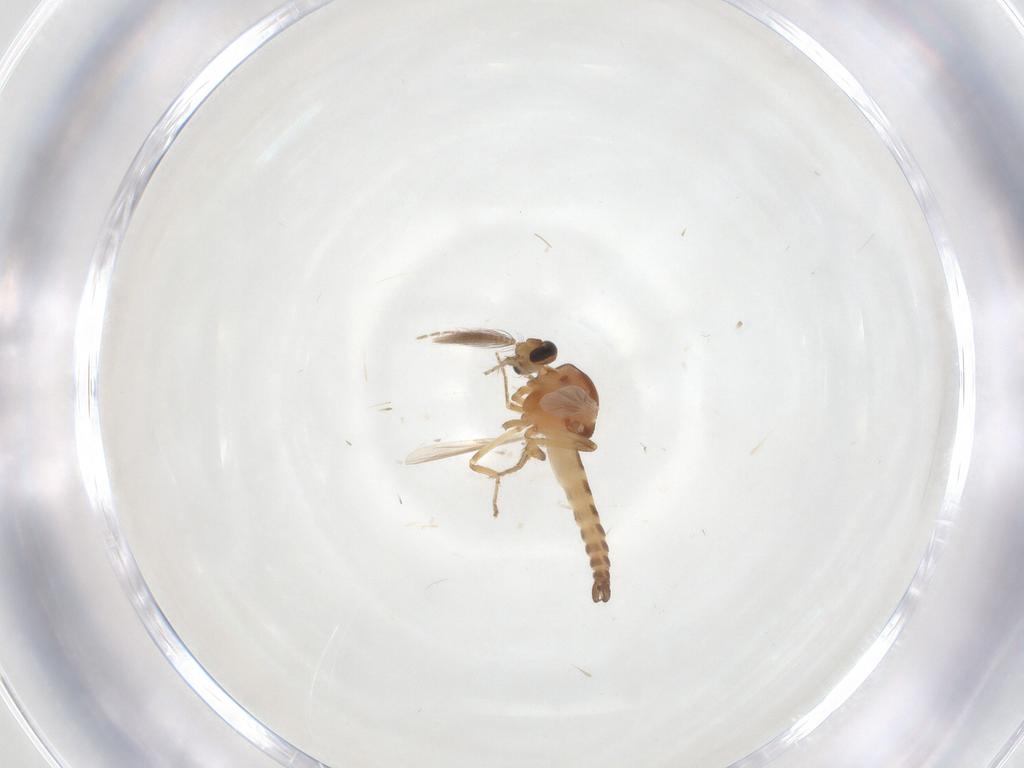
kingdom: Animalia
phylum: Arthropoda
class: Insecta
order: Diptera
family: Ceratopogonidae
